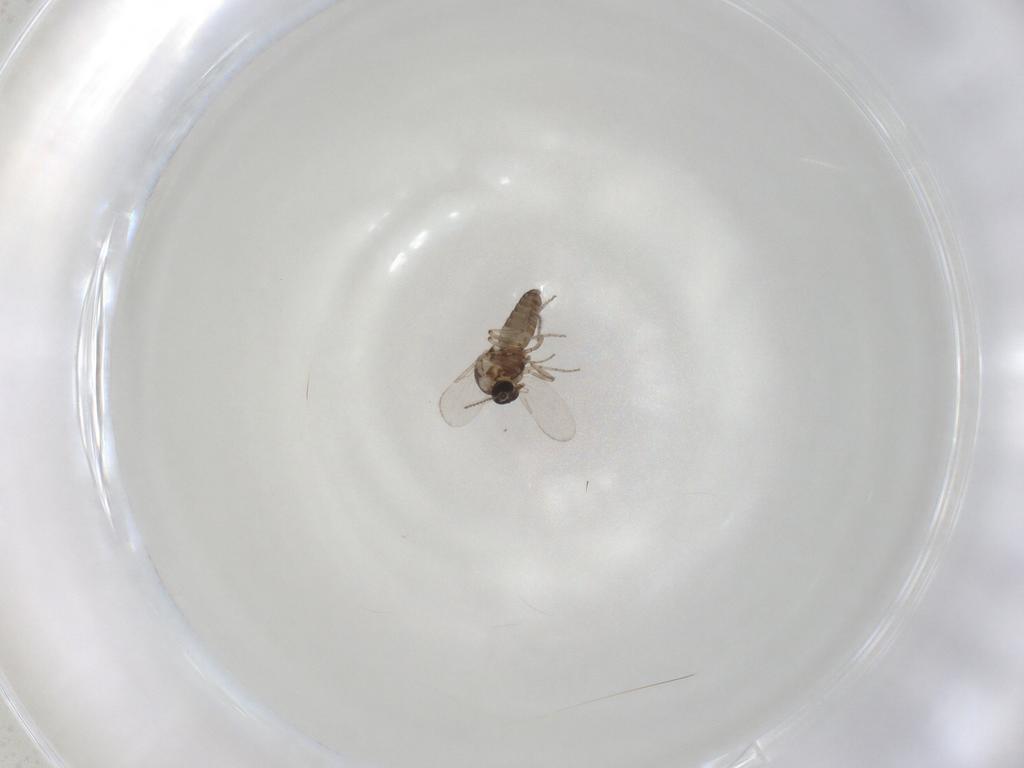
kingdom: Animalia
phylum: Arthropoda
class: Insecta
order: Diptera
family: Ceratopogonidae
